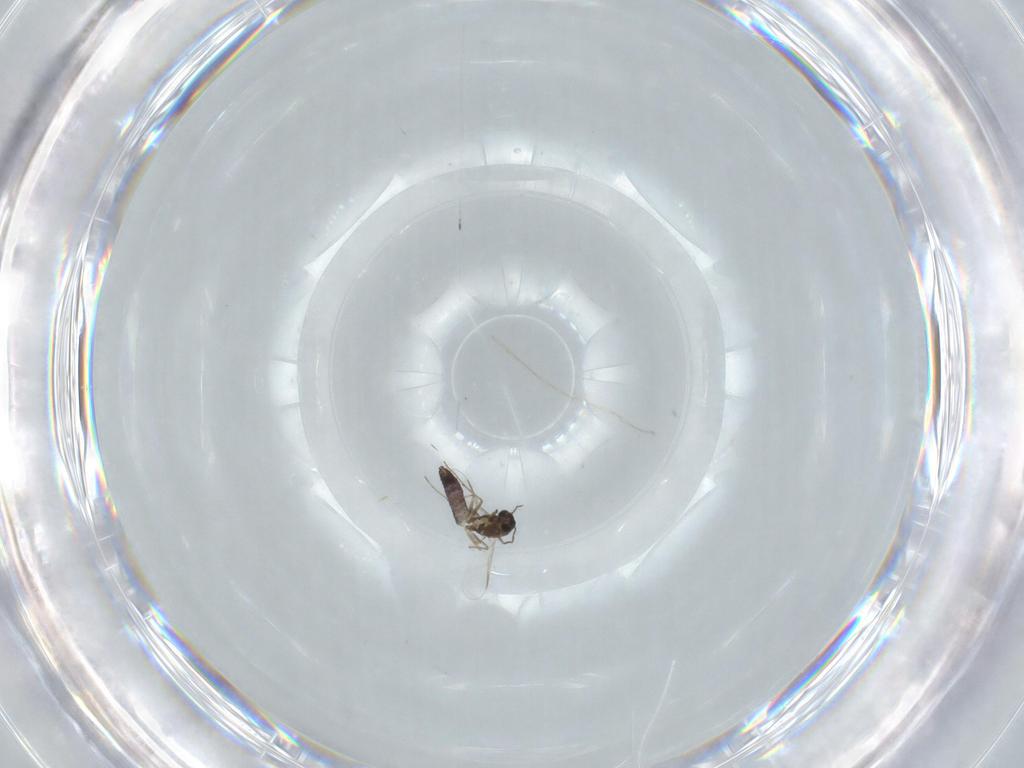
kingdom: Animalia
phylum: Arthropoda
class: Insecta
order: Diptera
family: Chironomidae
